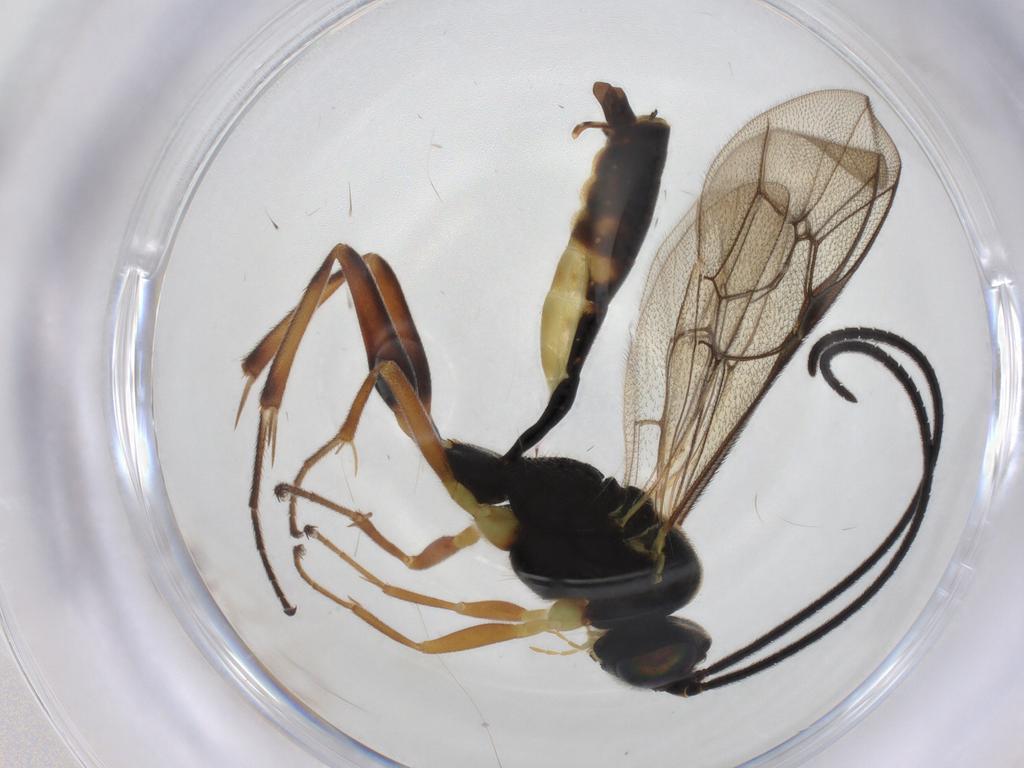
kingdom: Animalia
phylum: Arthropoda
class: Insecta
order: Hymenoptera
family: Ichneumonidae
